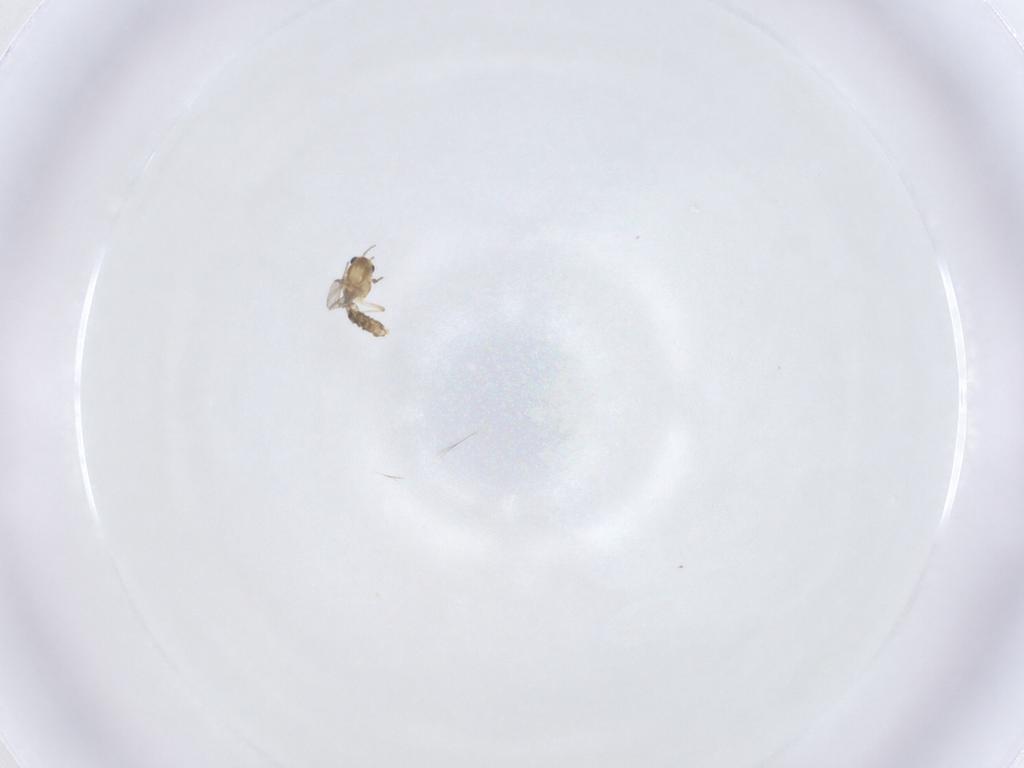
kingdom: Animalia
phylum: Arthropoda
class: Insecta
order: Diptera
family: Chironomidae
